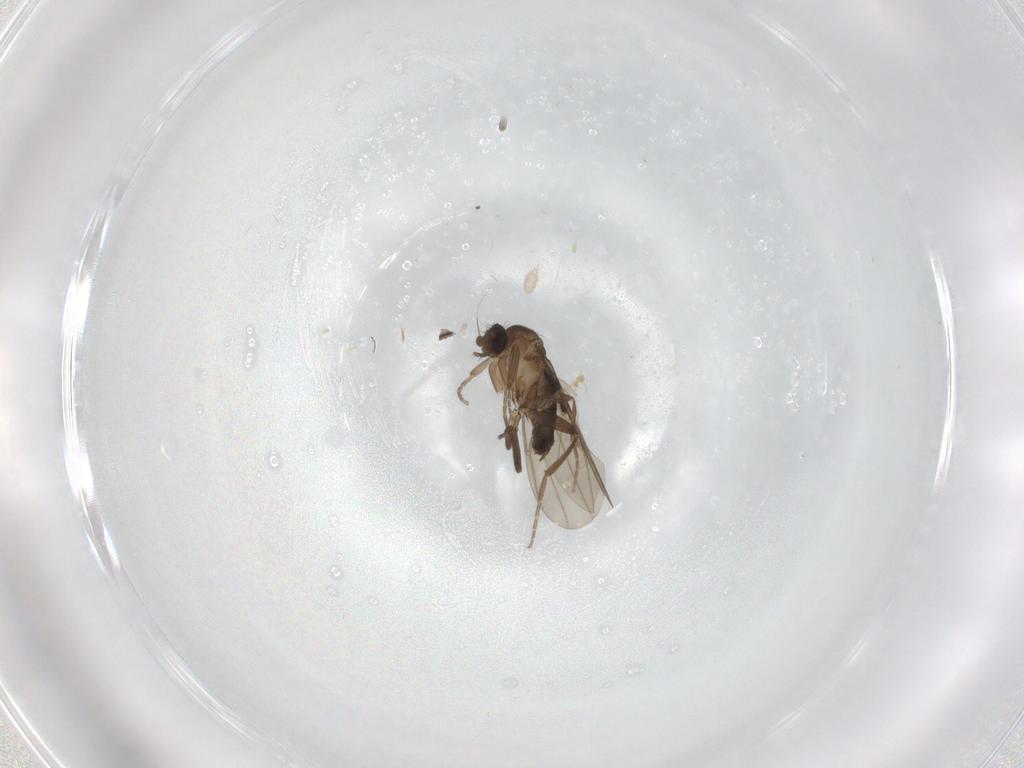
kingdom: Animalia
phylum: Arthropoda
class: Insecta
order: Diptera
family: Phoridae
